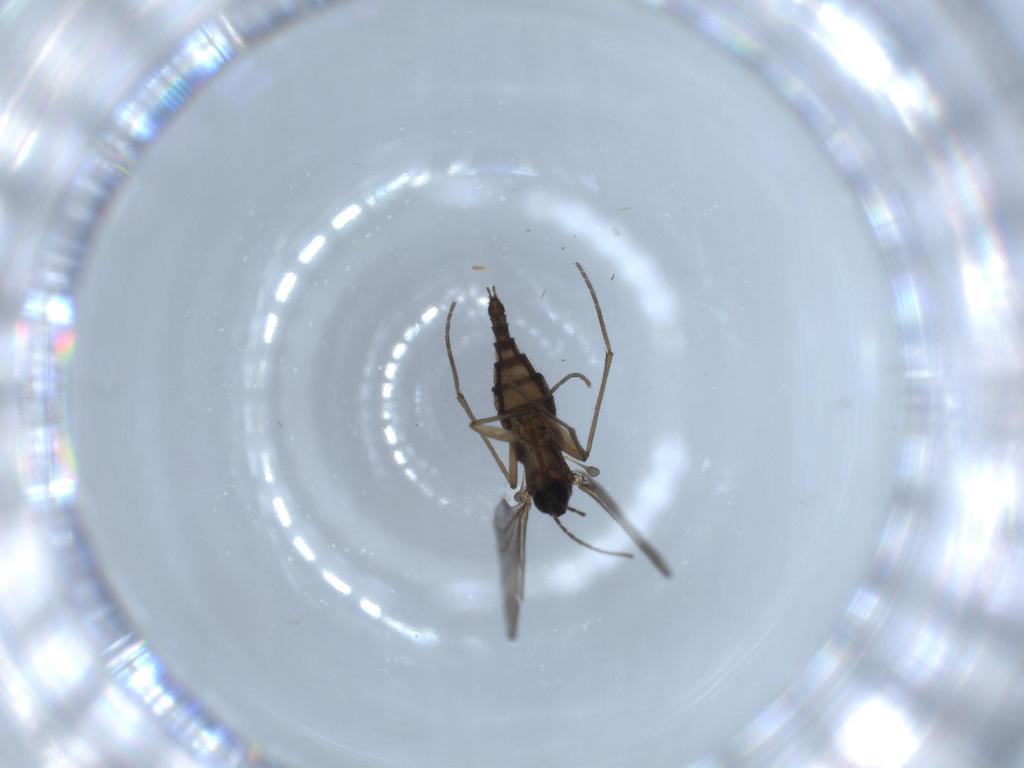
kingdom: Animalia
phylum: Arthropoda
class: Insecta
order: Diptera
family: Sciaridae
